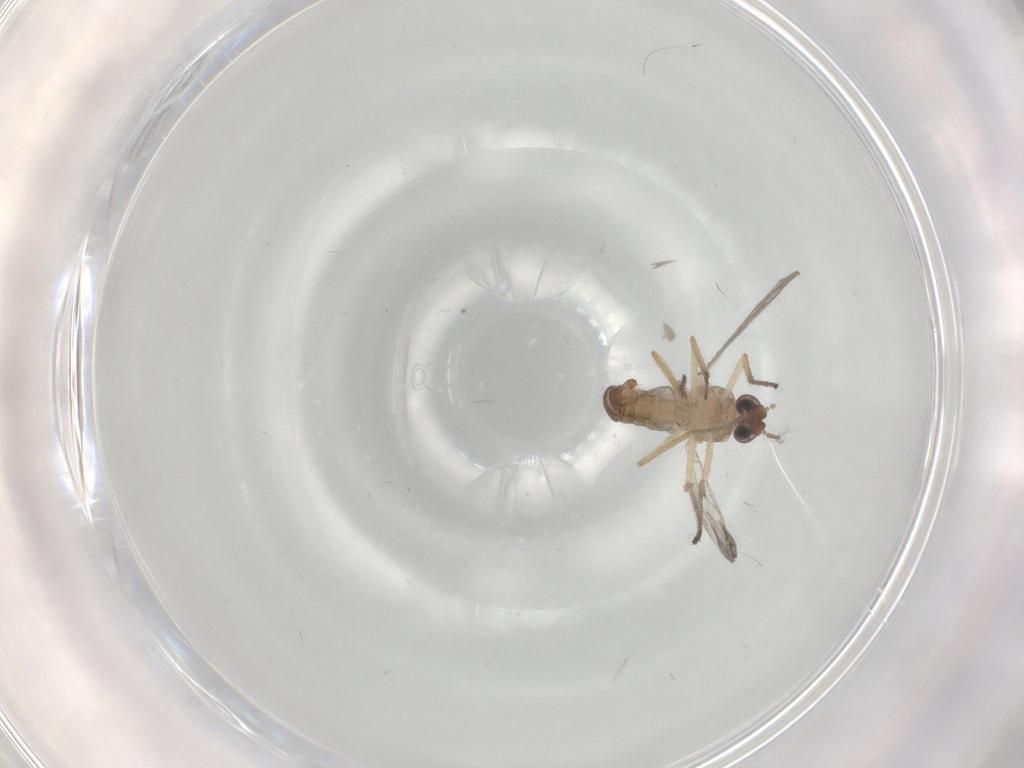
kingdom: Animalia
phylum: Arthropoda
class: Insecta
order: Diptera
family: Ceratopogonidae
